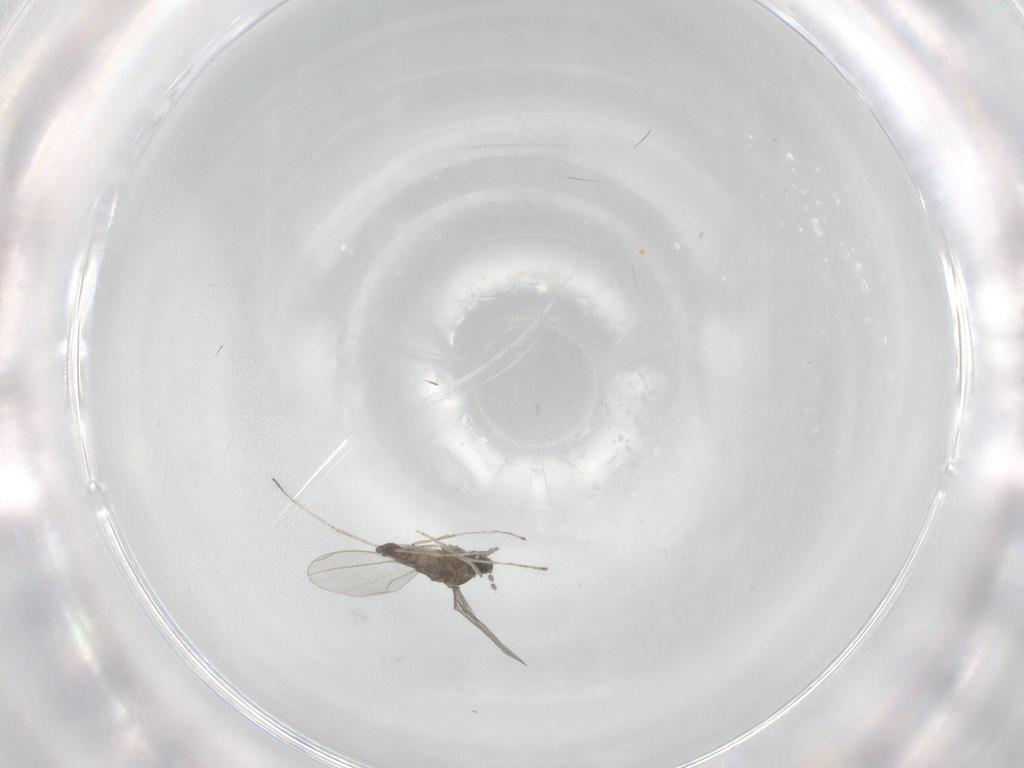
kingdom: Animalia
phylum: Arthropoda
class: Insecta
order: Diptera
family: Cecidomyiidae
